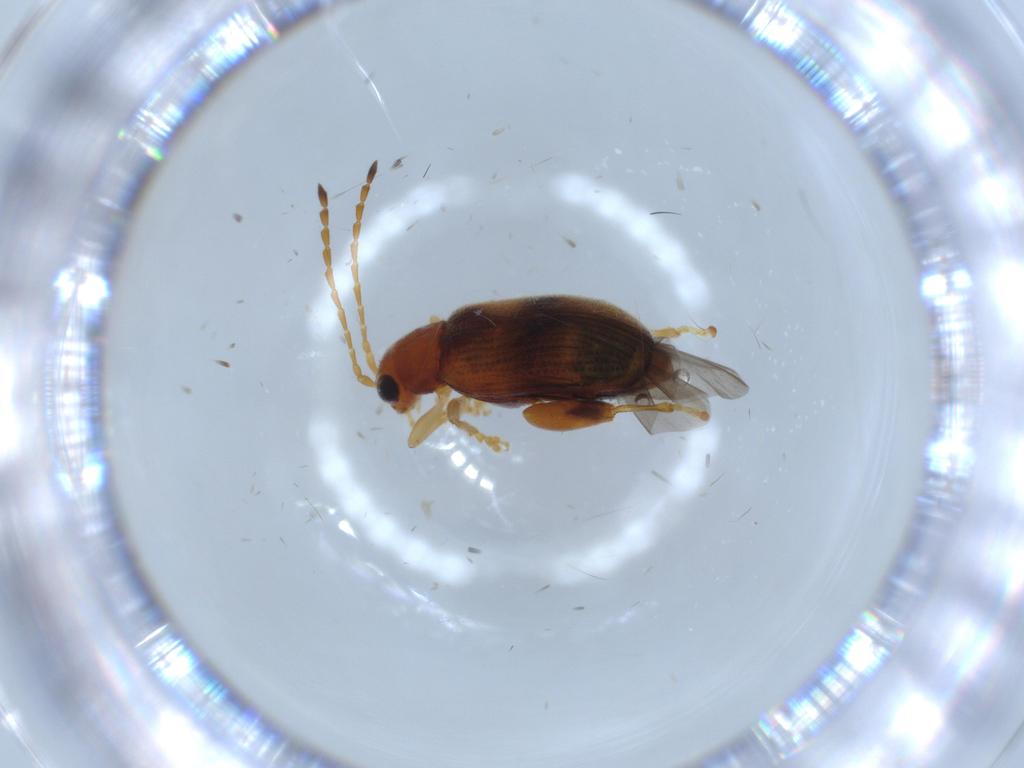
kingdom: Animalia
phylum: Arthropoda
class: Insecta
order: Coleoptera
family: Chrysomelidae
